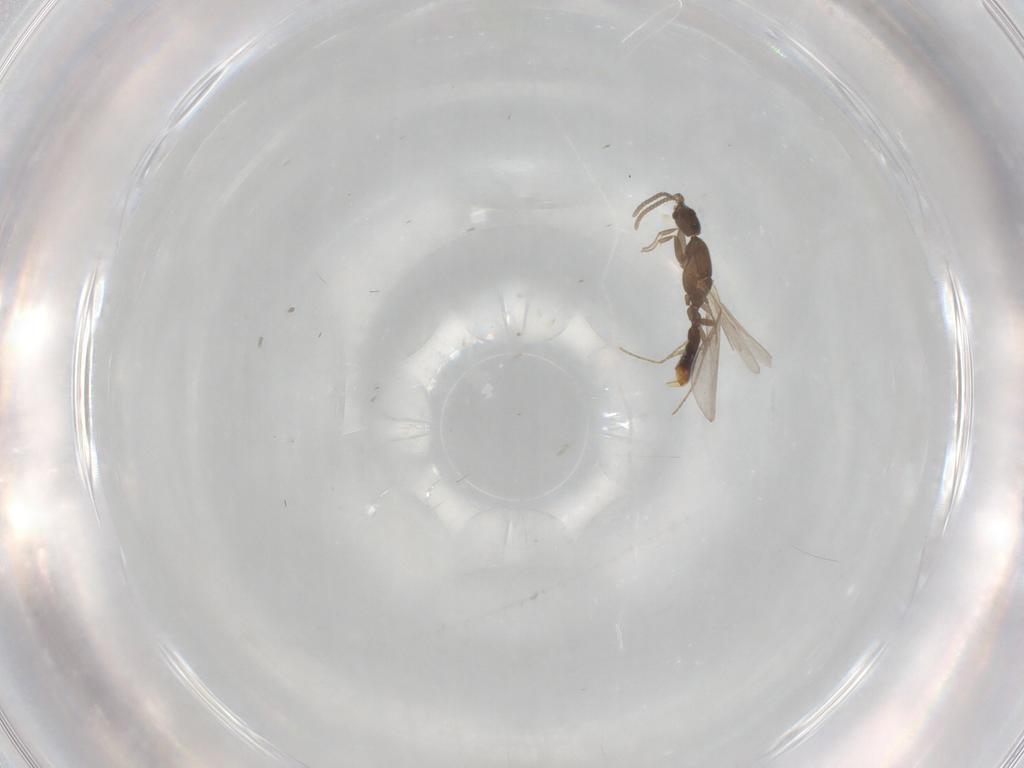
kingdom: Animalia
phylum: Arthropoda
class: Insecta
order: Hymenoptera
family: Formicidae
